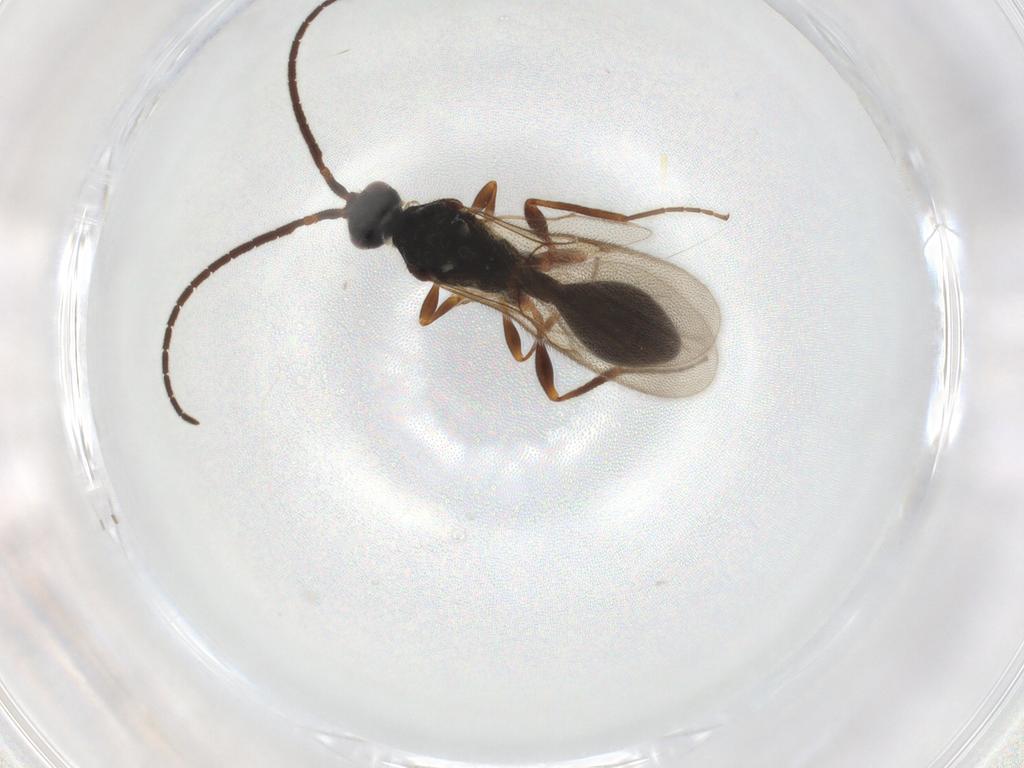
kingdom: Animalia
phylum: Arthropoda
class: Insecta
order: Hymenoptera
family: Diapriidae
